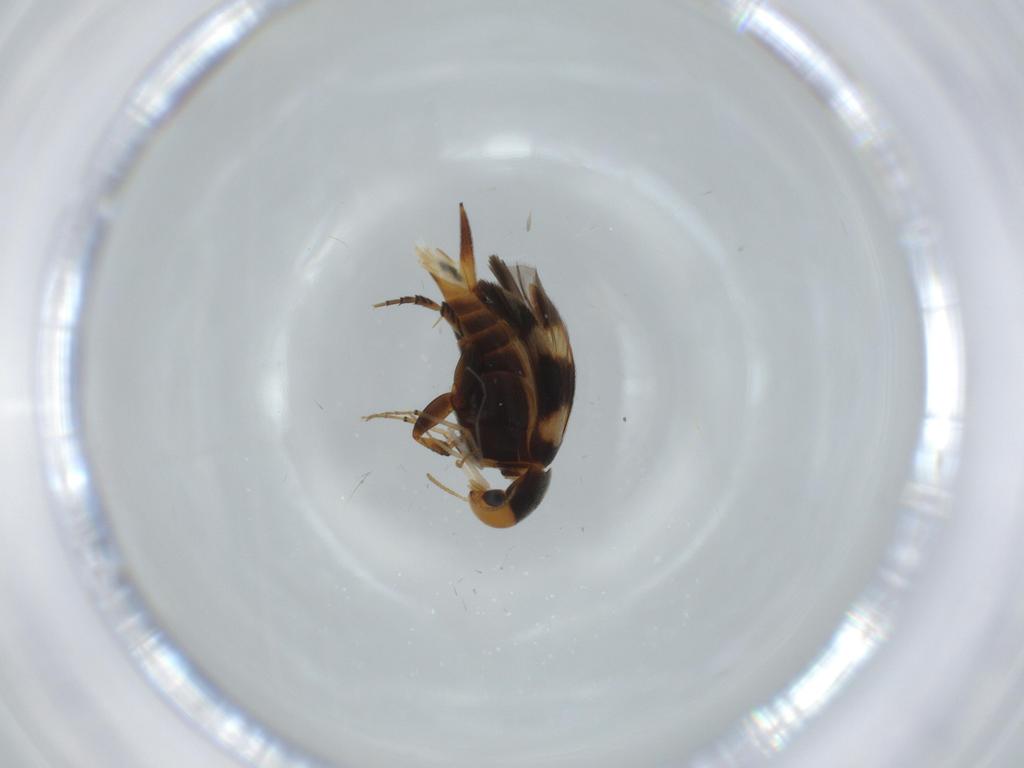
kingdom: Animalia
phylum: Arthropoda
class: Insecta
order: Coleoptera
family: Mordellidae
